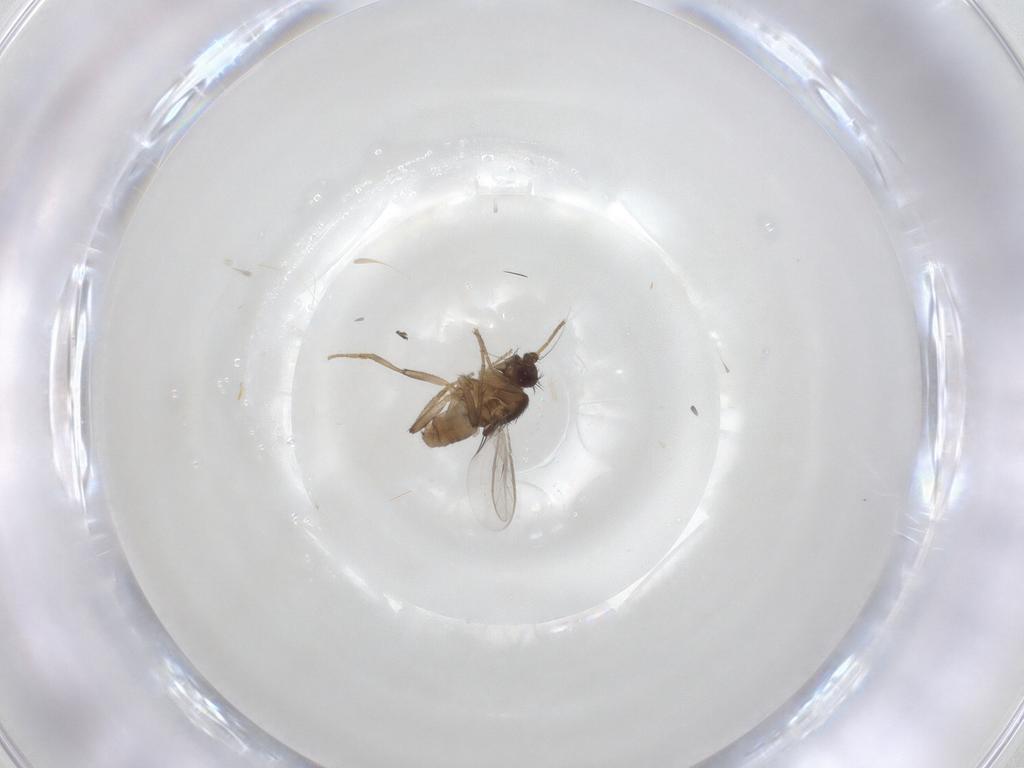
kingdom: Animalia
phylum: Arthropoda
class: Insecta
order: Diptera
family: Sphaeroceridae
